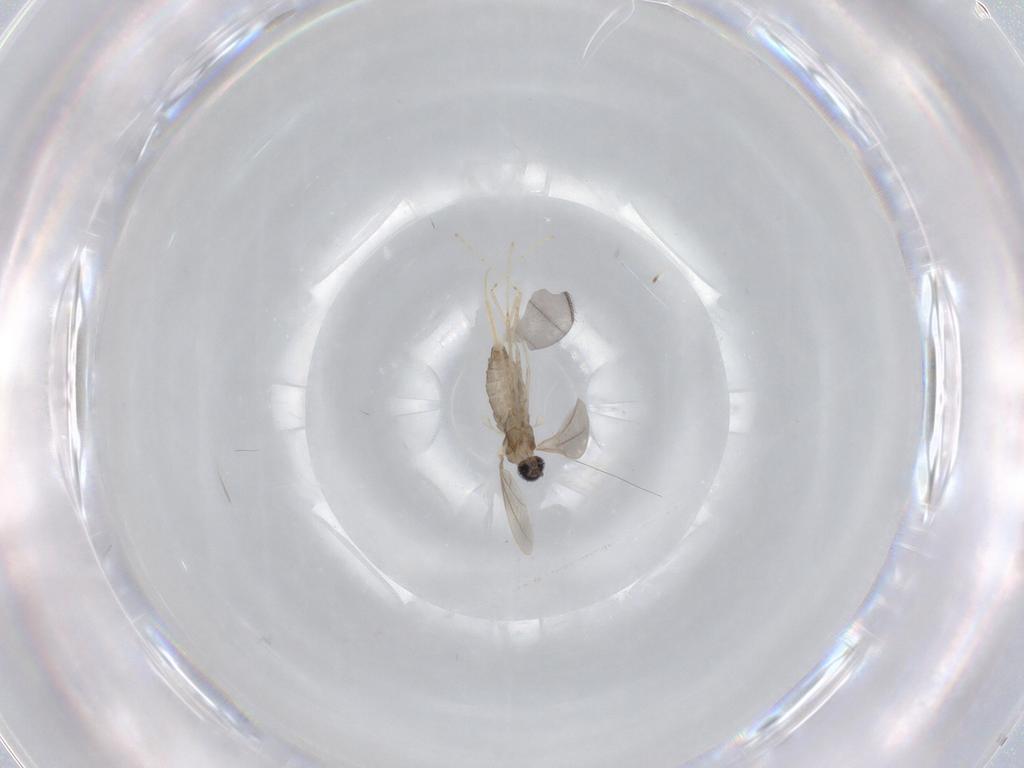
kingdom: Animalia
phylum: Arthropoda
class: Insecta
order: Diptera
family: Cecidomyiidae
